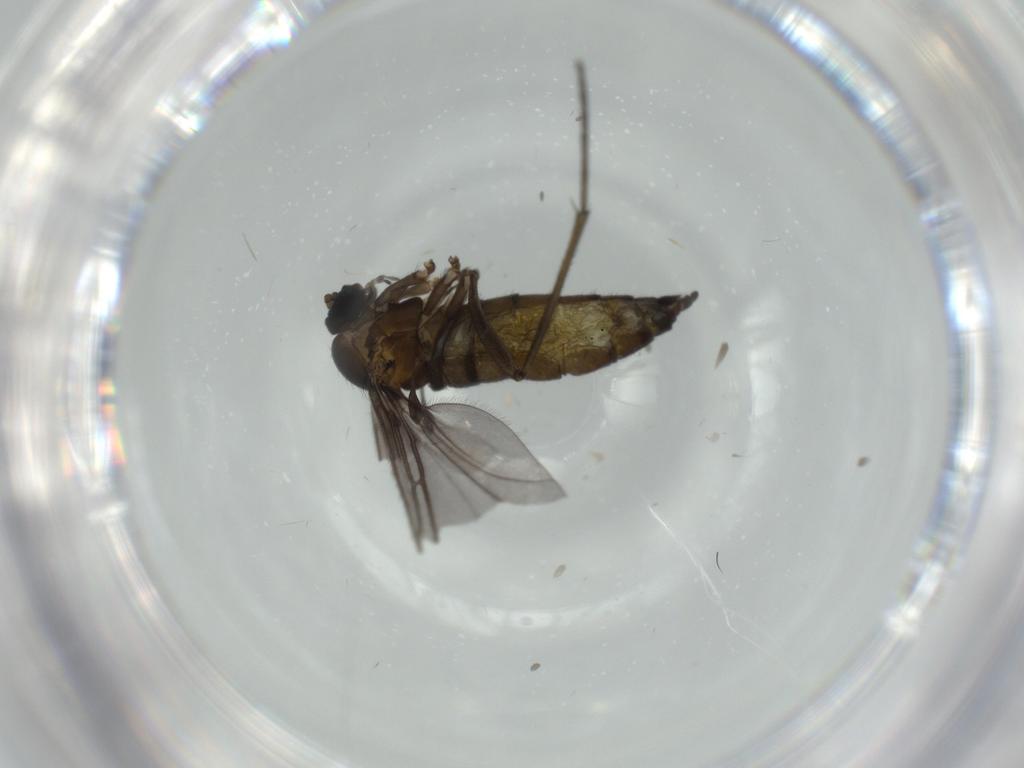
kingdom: Animalia
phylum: Arthropoda
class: Insecta
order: Diptera
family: Sciaridae
